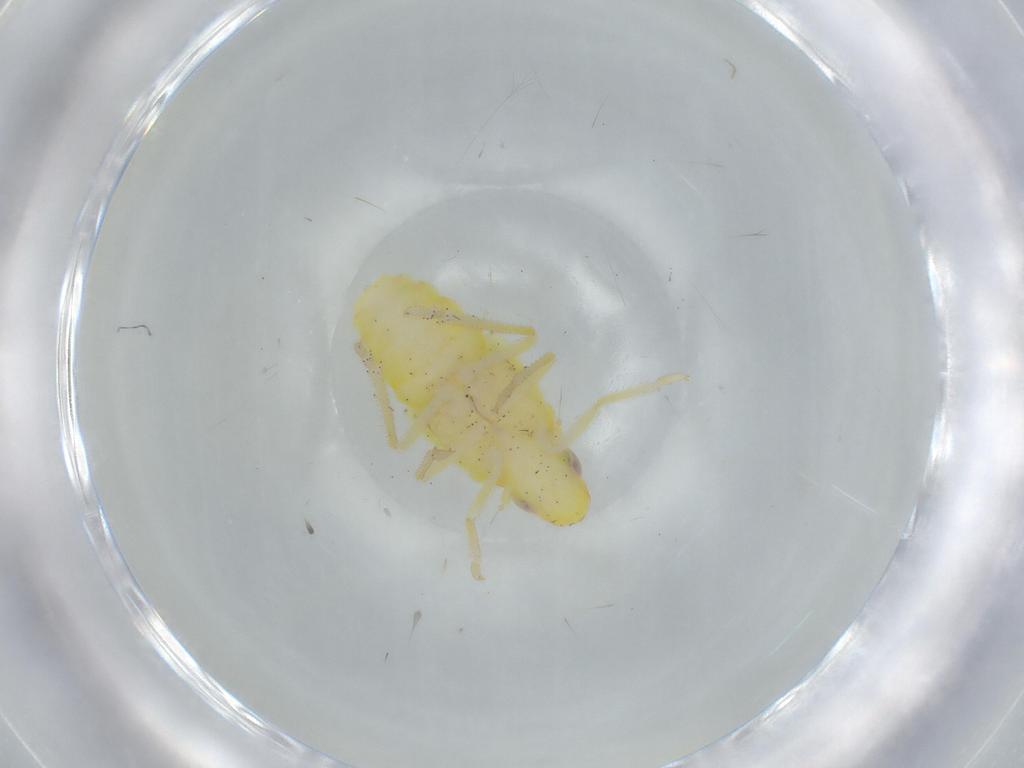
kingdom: Animalia
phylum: Arthropoda
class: Insecta
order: Hemiptera
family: Tropiduchidae
